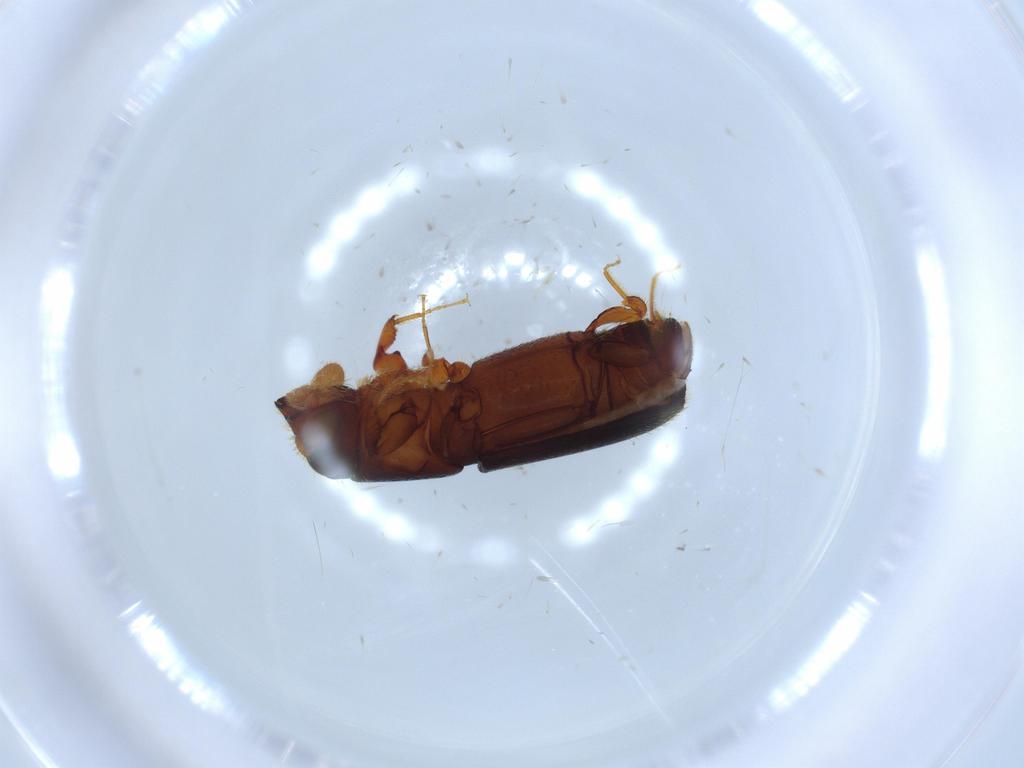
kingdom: Animalia
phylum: Arthropoda
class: Insecta
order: Coleoptera
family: Curculionidae
